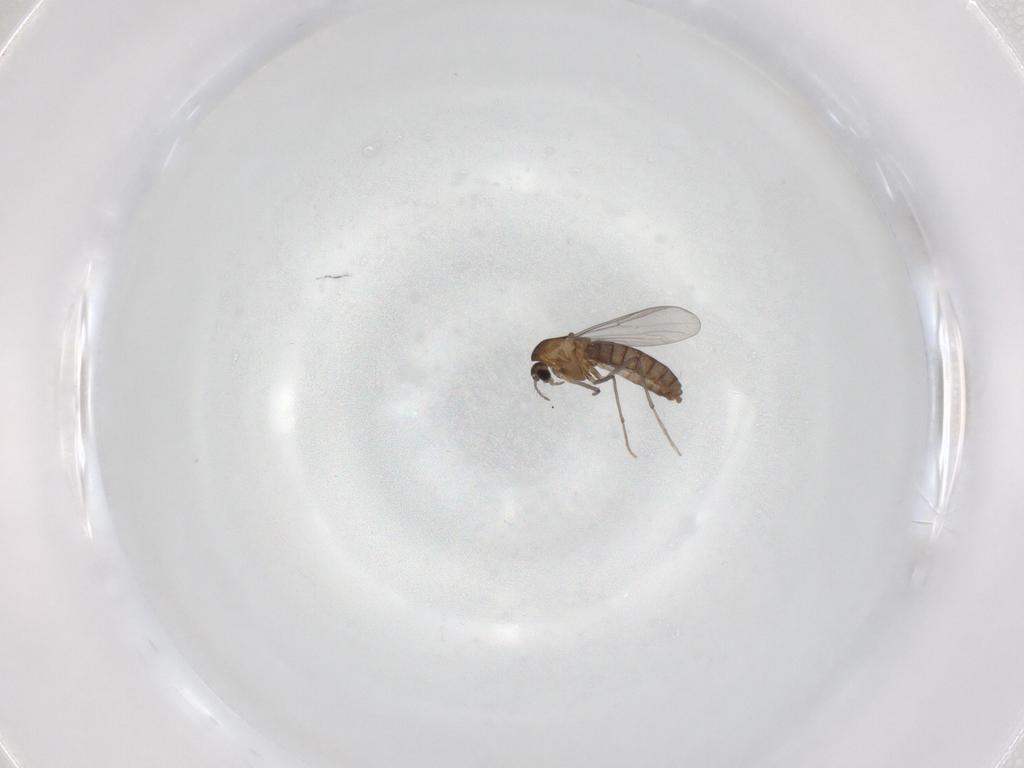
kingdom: Animalia
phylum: Arthropoda
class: Insecta
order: Diptera
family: Chironomidae
